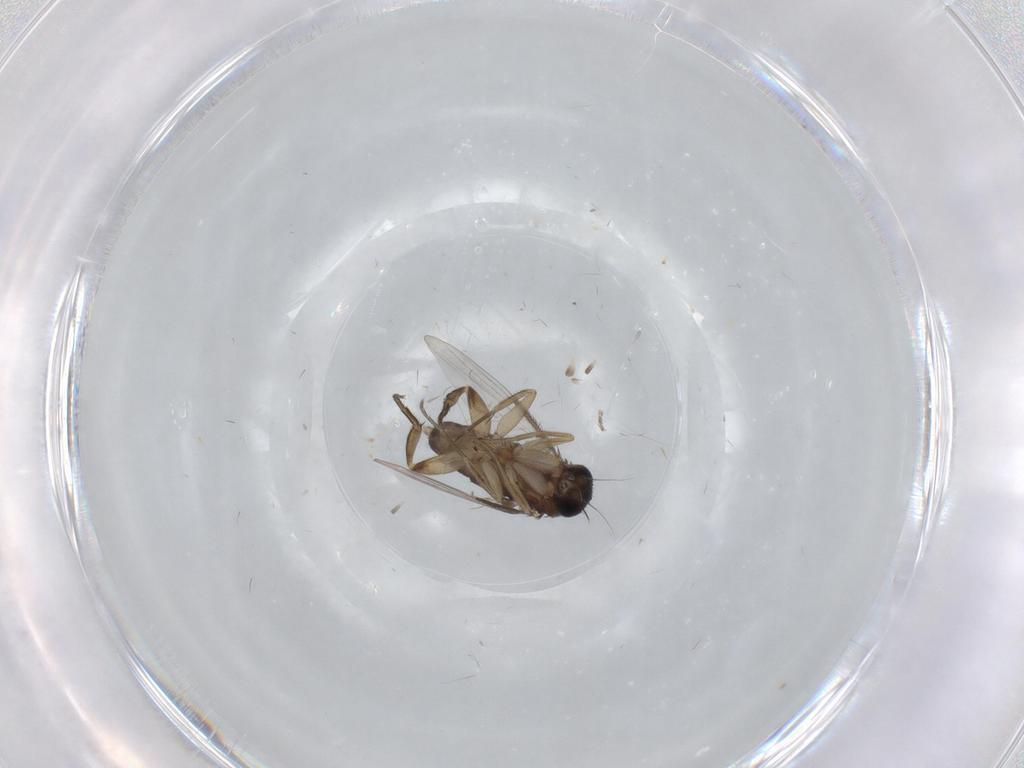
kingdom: Animalia
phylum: Arthropoda
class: Insecta
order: Diptera
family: Phoridae
